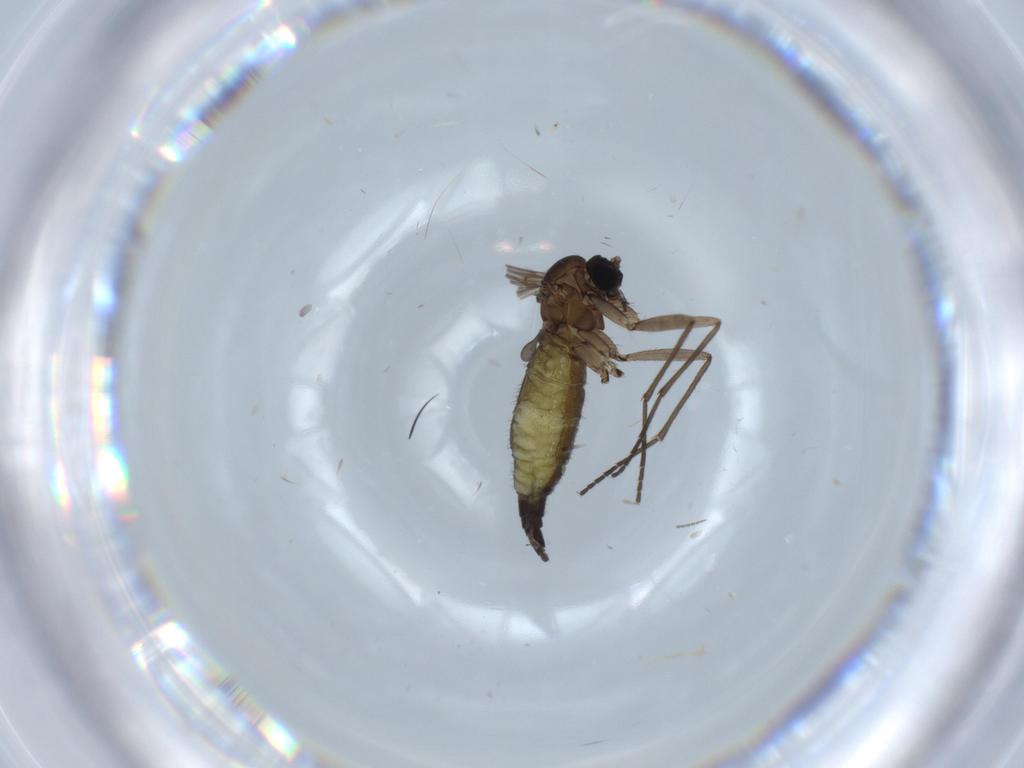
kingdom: Animalia
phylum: Arthropoda
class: Insecta
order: Diptera
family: Sciaridae
